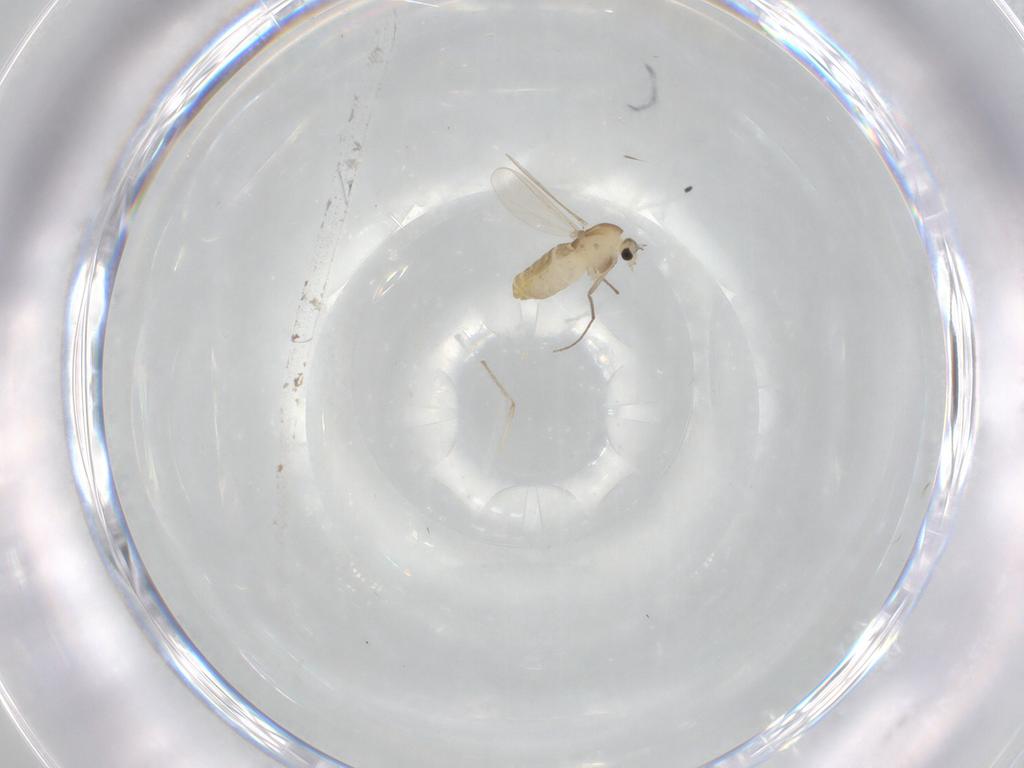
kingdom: Animalia
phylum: Arthropoda
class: Insecta
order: Diptera
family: Chironomidae
